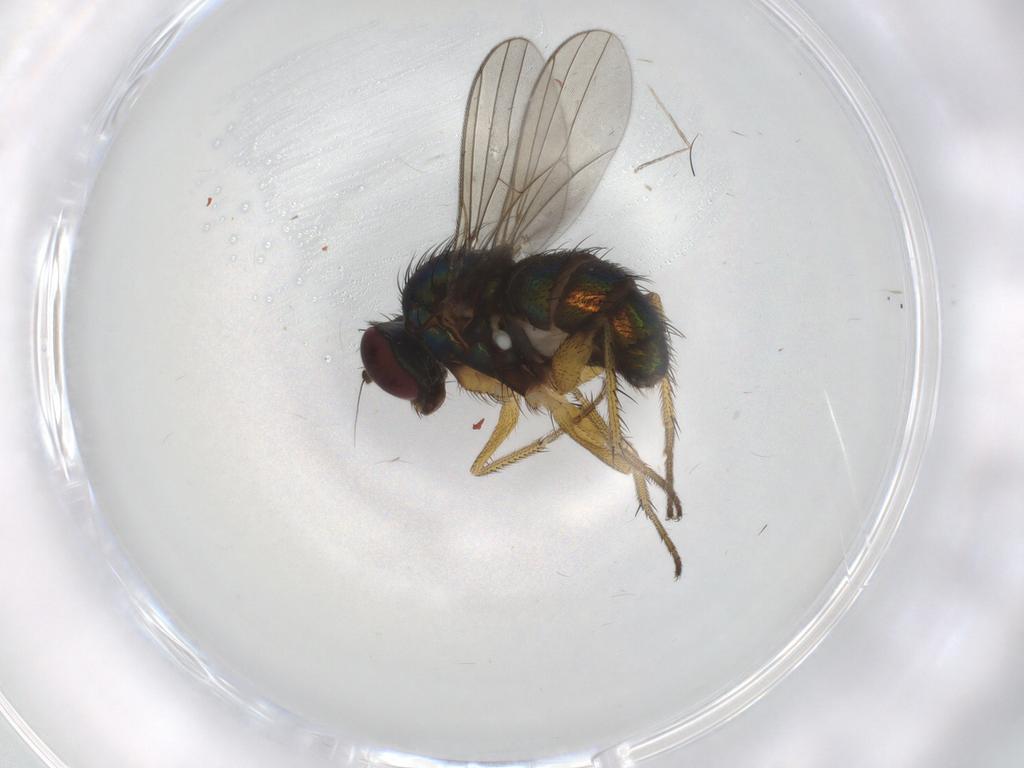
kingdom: Animalia
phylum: Arthropoda
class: Insecta
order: Diptera
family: Dolichopodidae
